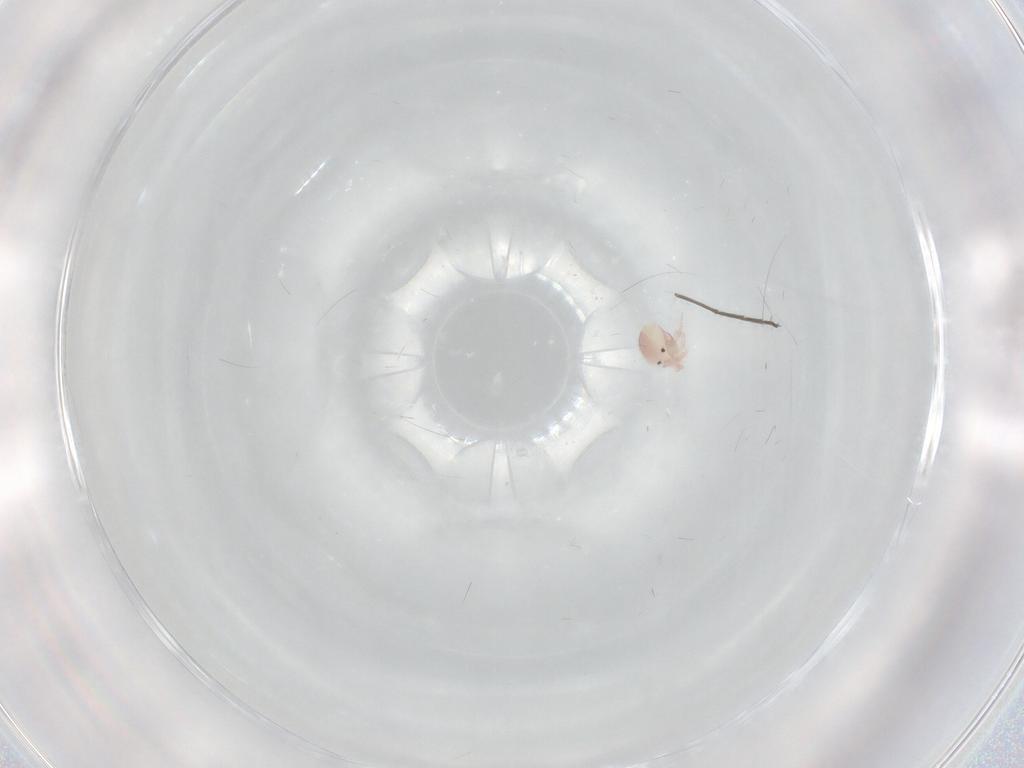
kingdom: Animalia
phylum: Arthropoda
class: Arachnida
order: Trombidiformes
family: Lebertiidae
